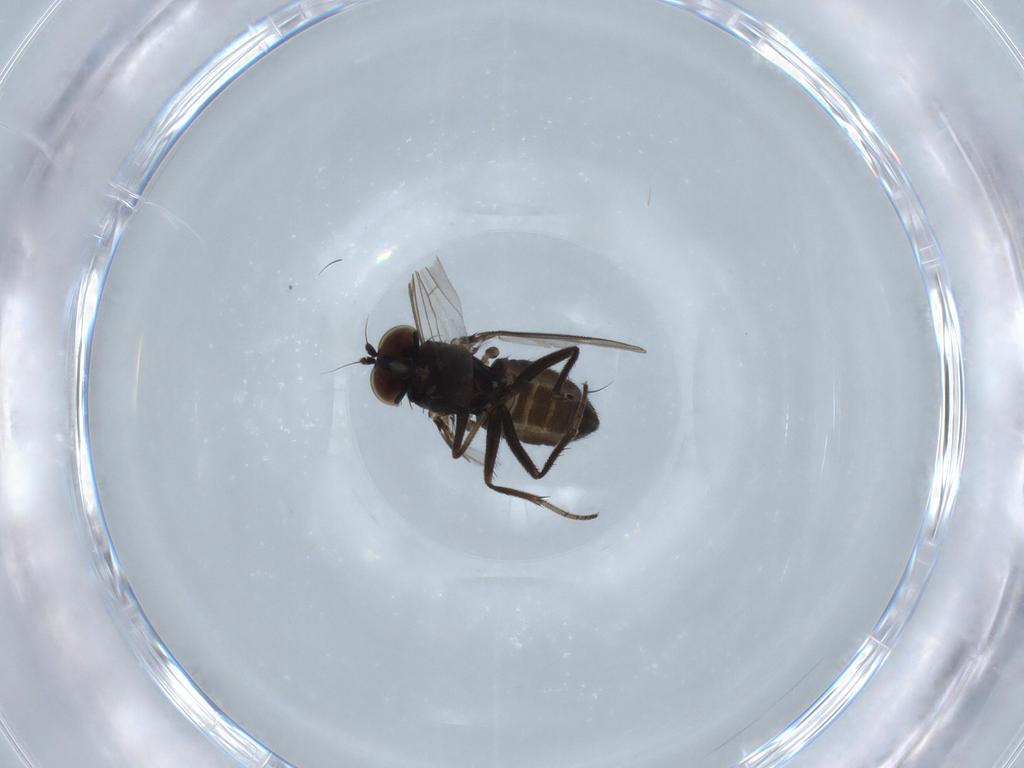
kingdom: Animalia
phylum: Arthropoda
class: Insecta
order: Diptera
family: Dolichopodidae
